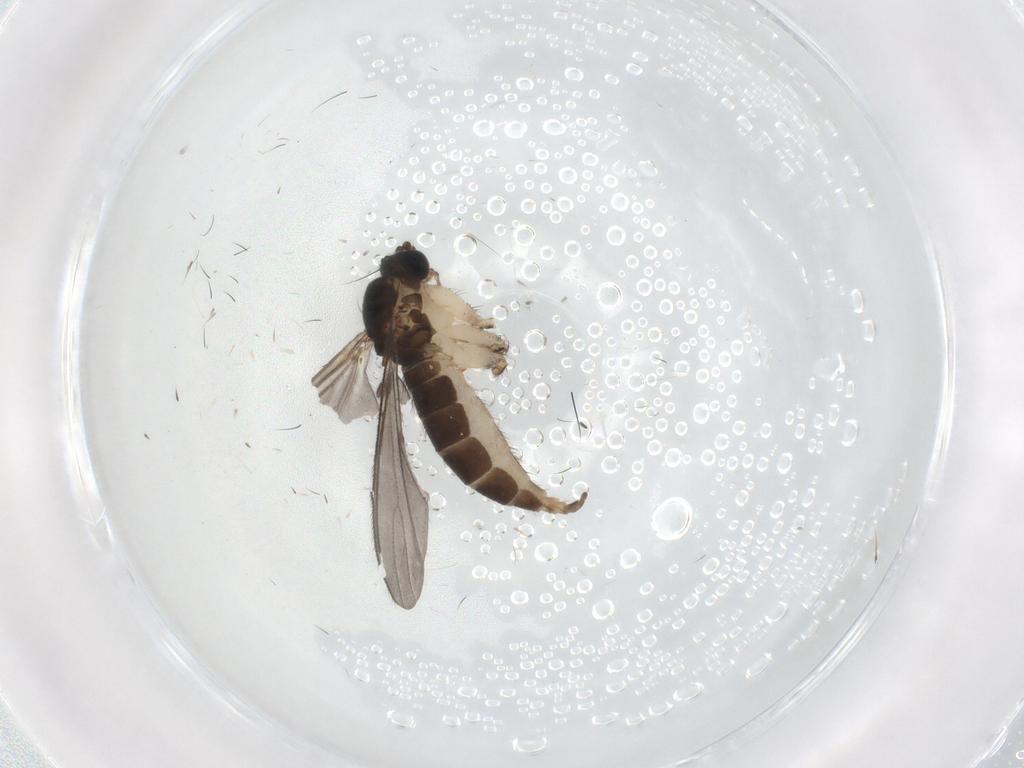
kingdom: Animalia
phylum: Arthropoda
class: Insecta
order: Diptera
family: Sciaridae
